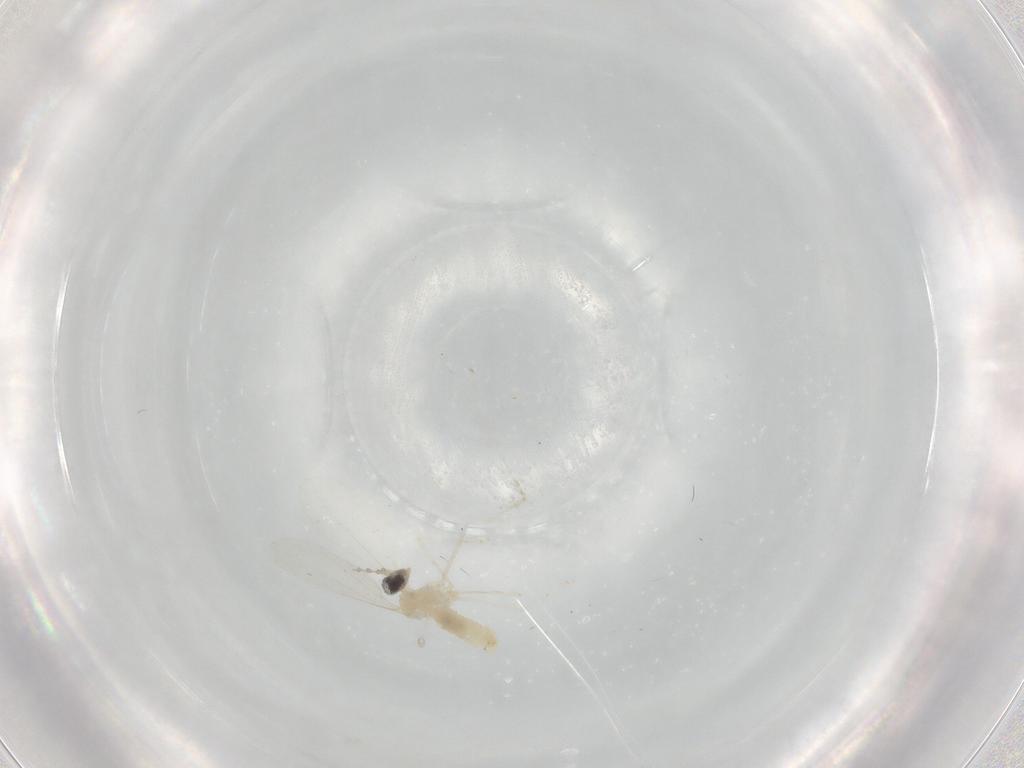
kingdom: Animalia
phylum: Arthropoda
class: Insecta
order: Diptera
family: Cecidomyiidae
